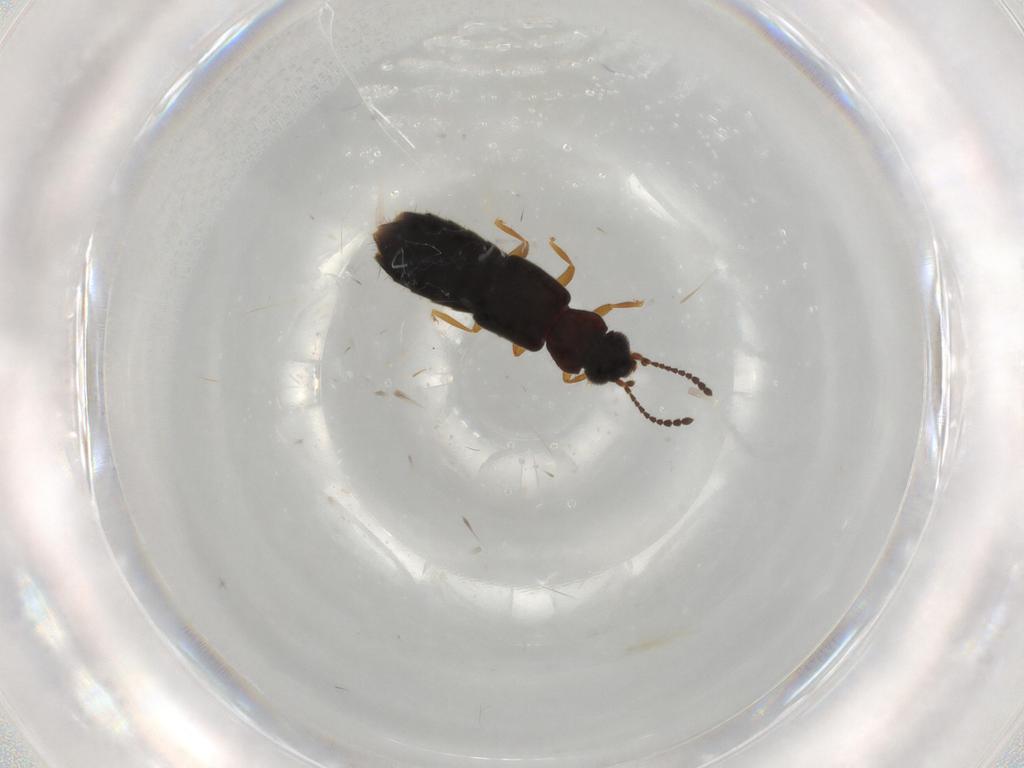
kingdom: Animalia
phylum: Arthropoda
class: Insecta
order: Coleoptera
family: Staphylinidae
